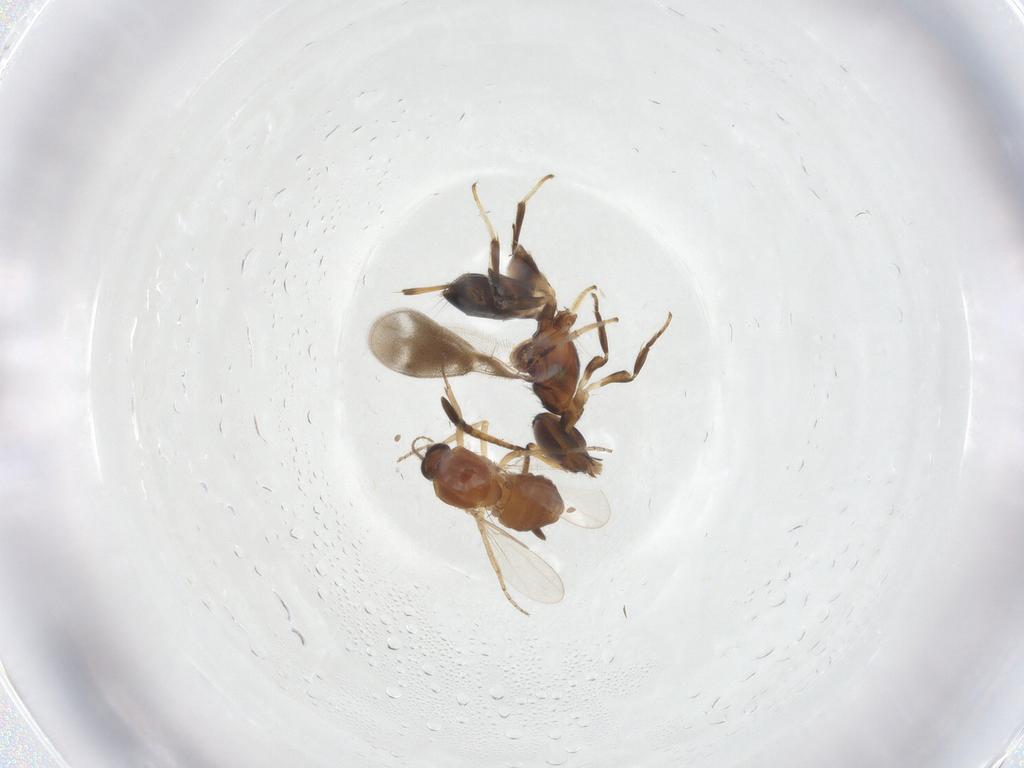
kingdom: Animalia
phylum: Arthropoda
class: Insecta
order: Diptera
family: Ceratopogonidae
